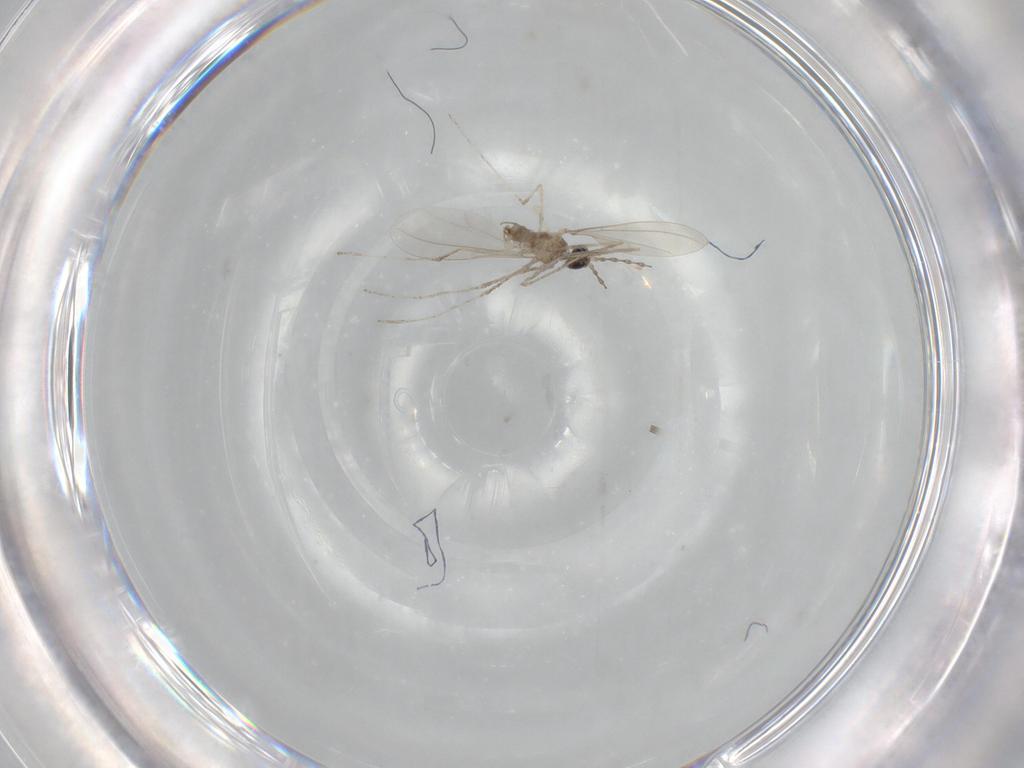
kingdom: Animalia
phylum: Arthropoda
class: Insecta
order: Diptera
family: Cecidomyiidae
